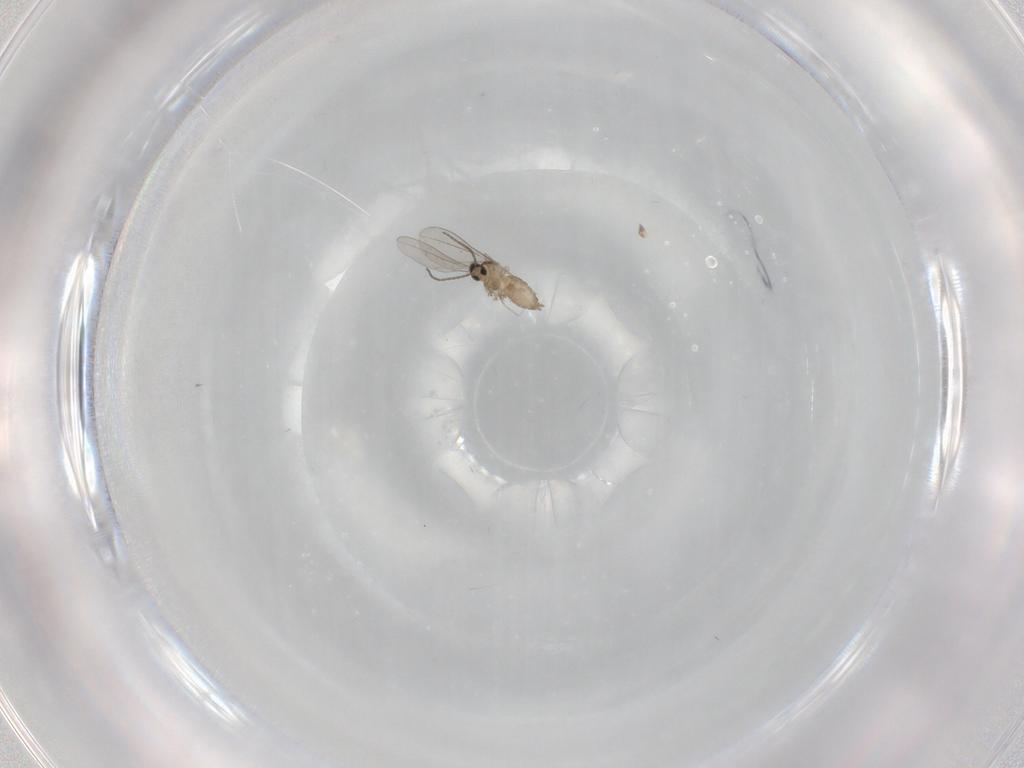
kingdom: Animalia
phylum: Arthropoda
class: Insecta
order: Diptera
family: Cecidomyiidae
